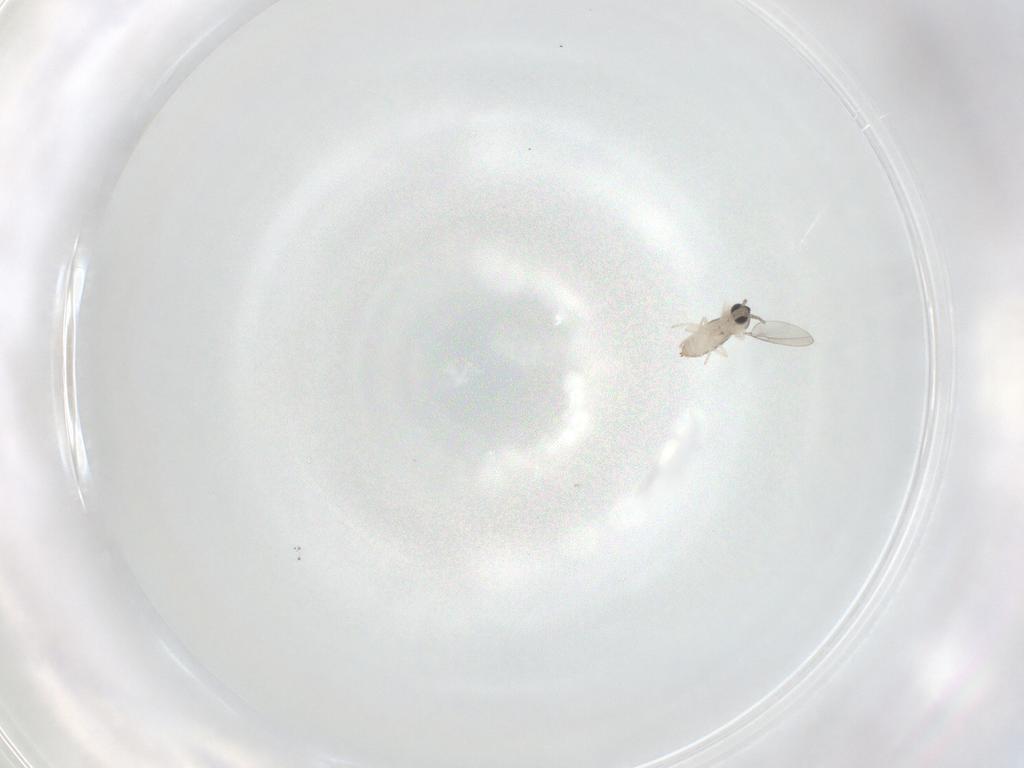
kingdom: Animalia
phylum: Arthropoda
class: Insecta
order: Diptera
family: Cecidomyiidae
